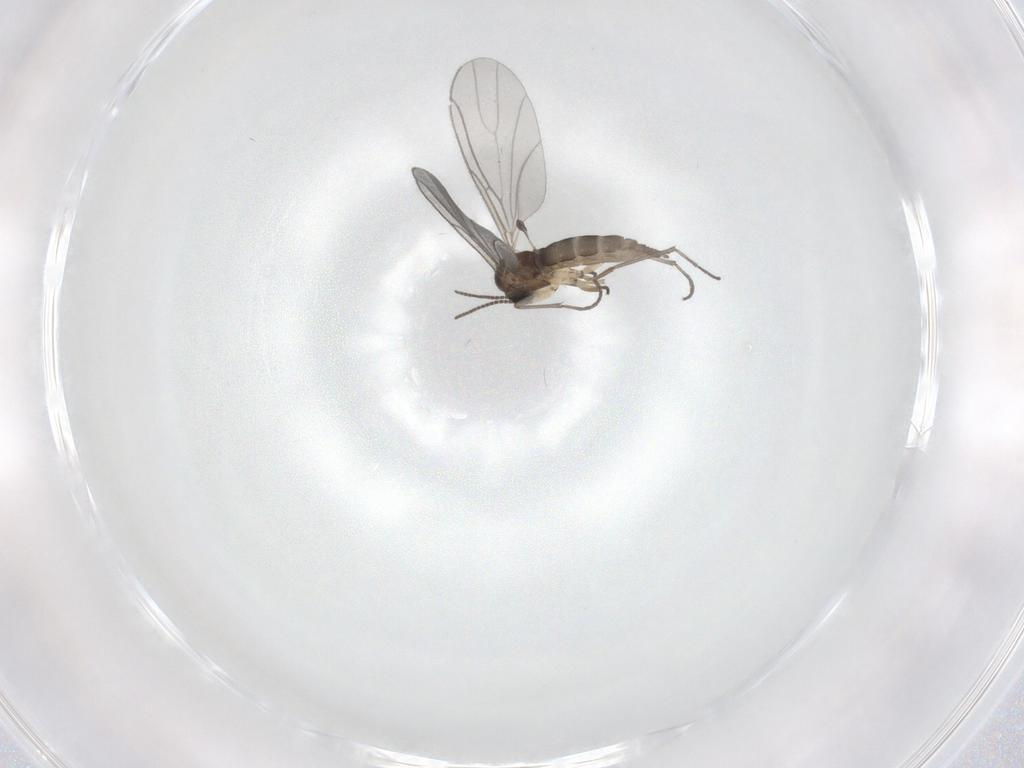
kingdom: Animalia
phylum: Arthropoda
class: Insecta
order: Diptera
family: Sciaridae
